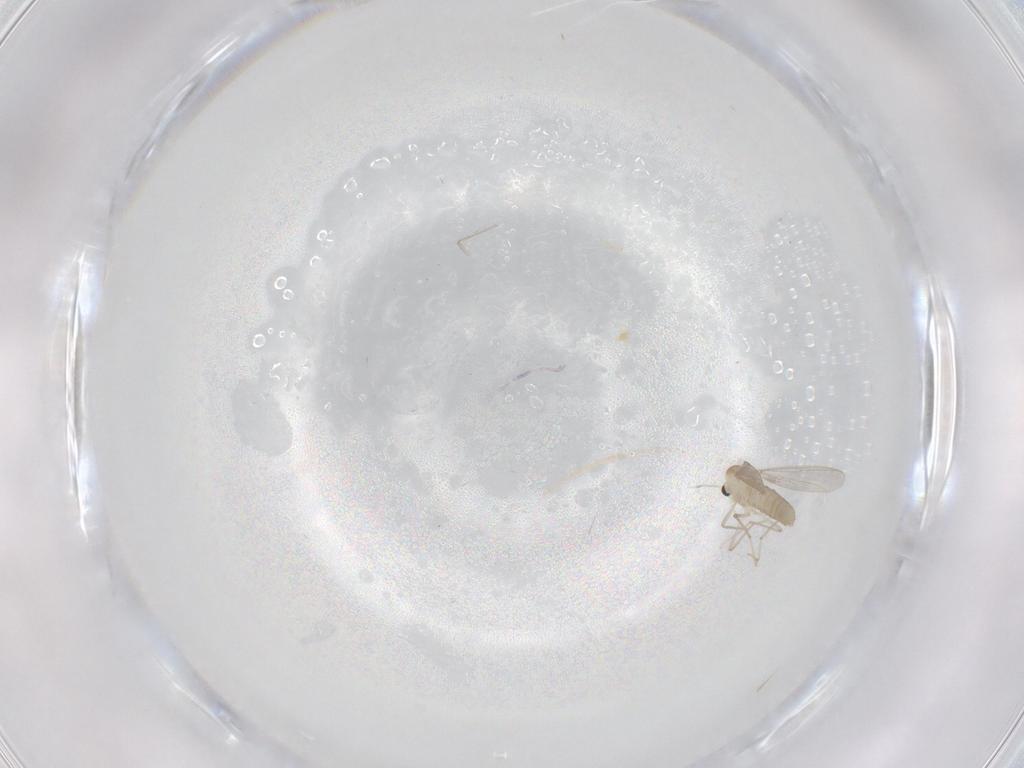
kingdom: Animalia
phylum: Arthropoda
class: Insecta
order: Diptera
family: Chironomidae
